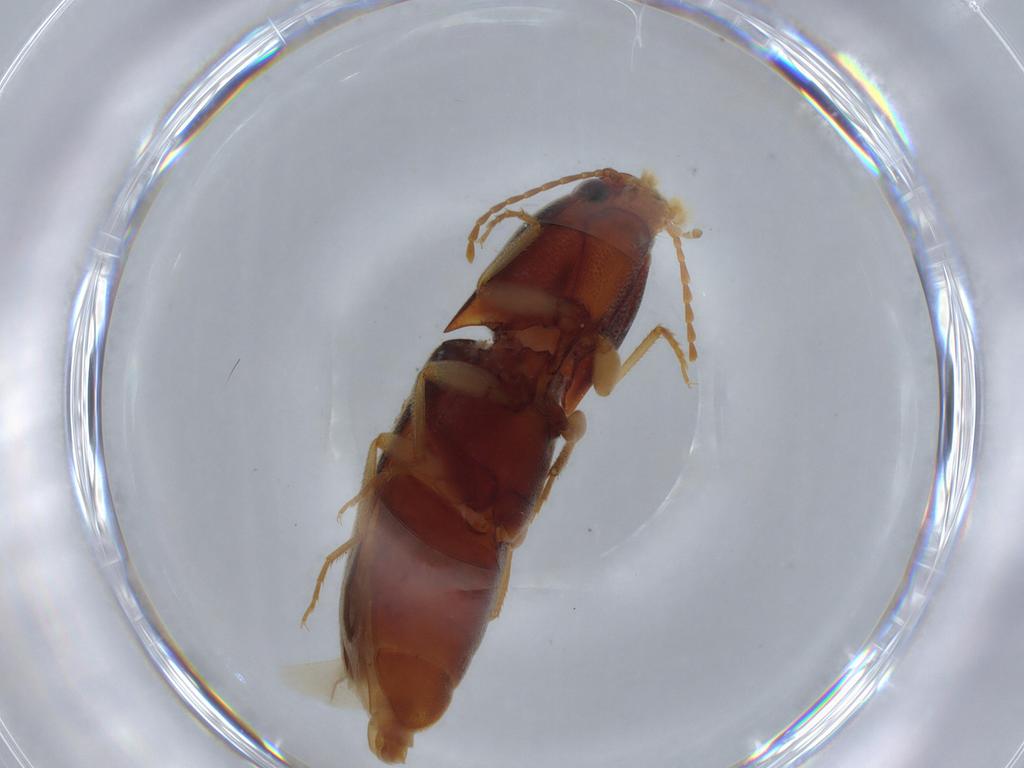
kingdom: Animalia
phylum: Arthropoda
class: Insecta
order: Coleoptera
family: Elateridae
